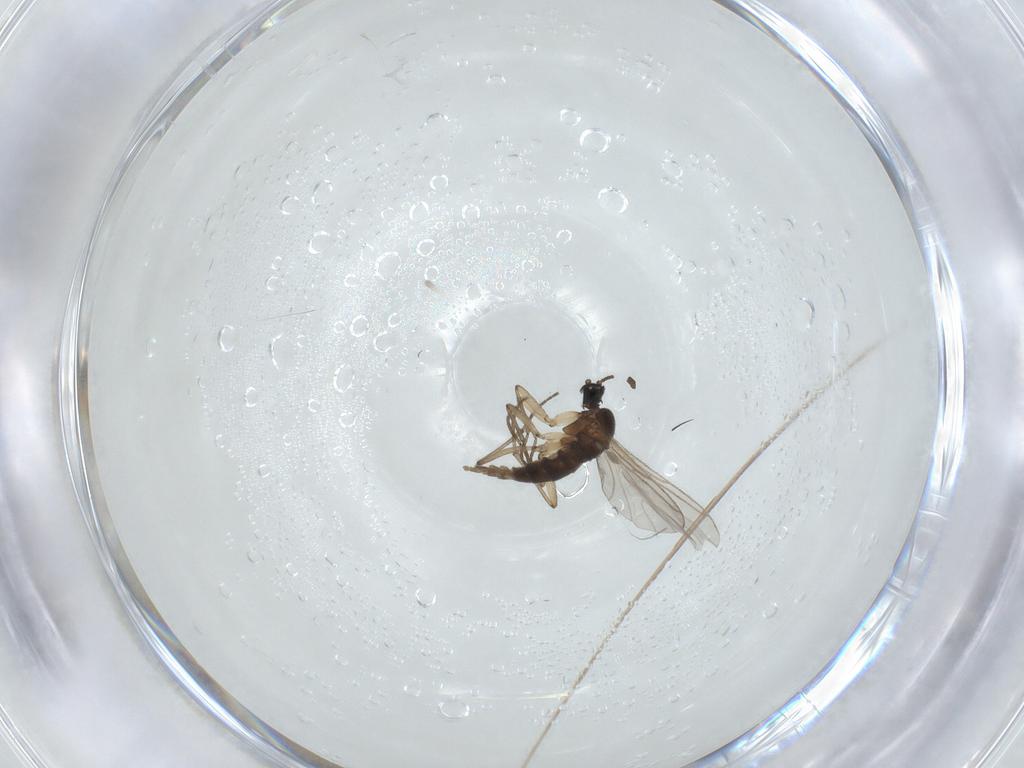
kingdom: Animalia
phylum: Arthropoda
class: Insecta
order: Diptera
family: Sciaridae
